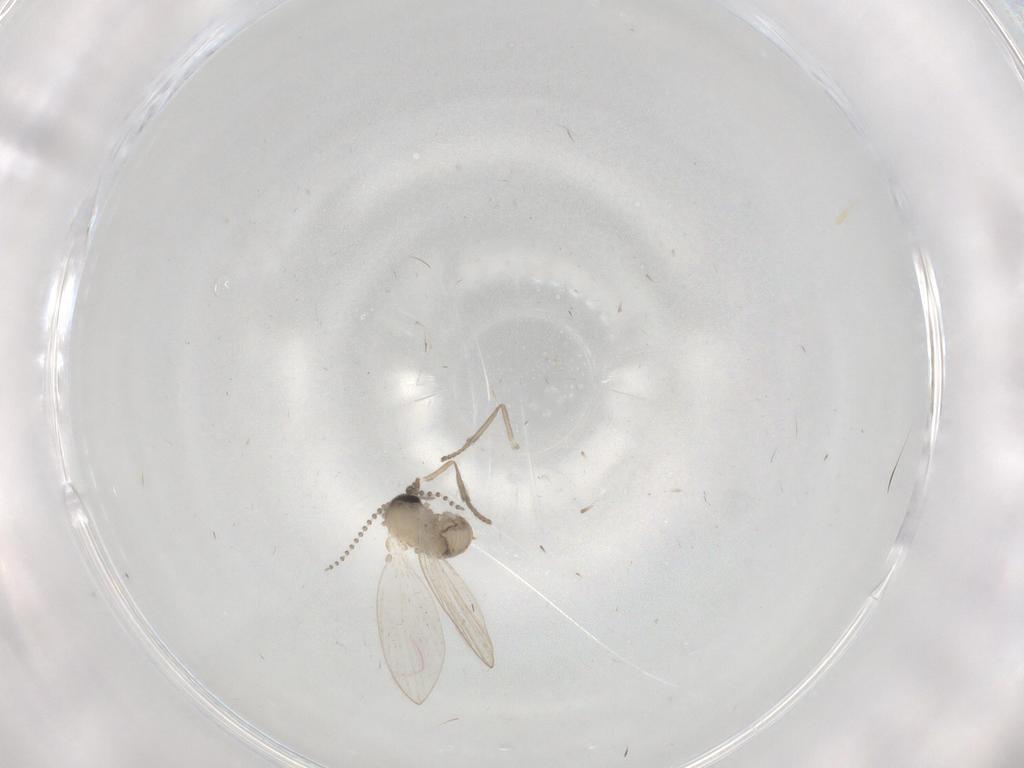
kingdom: Animalia
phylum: Arthropoda
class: Insecta
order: Diptera
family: Psychodidae
